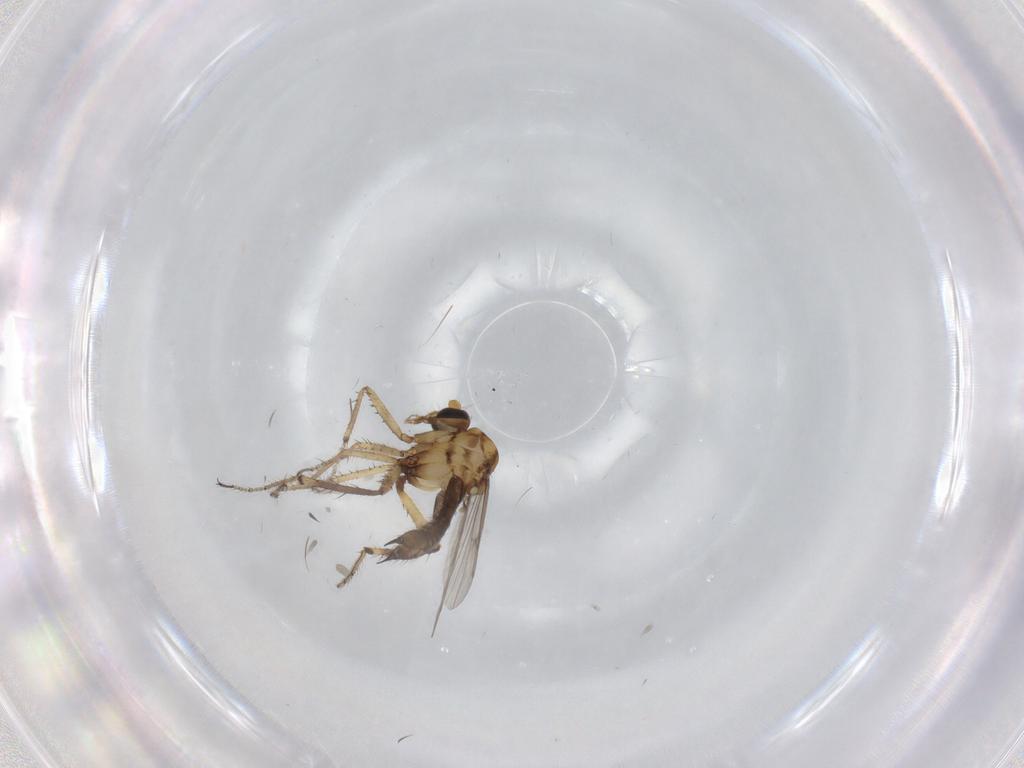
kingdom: Animalia
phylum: Arthropoda
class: Insecta
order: Diptera
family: Ceratopogonidae
